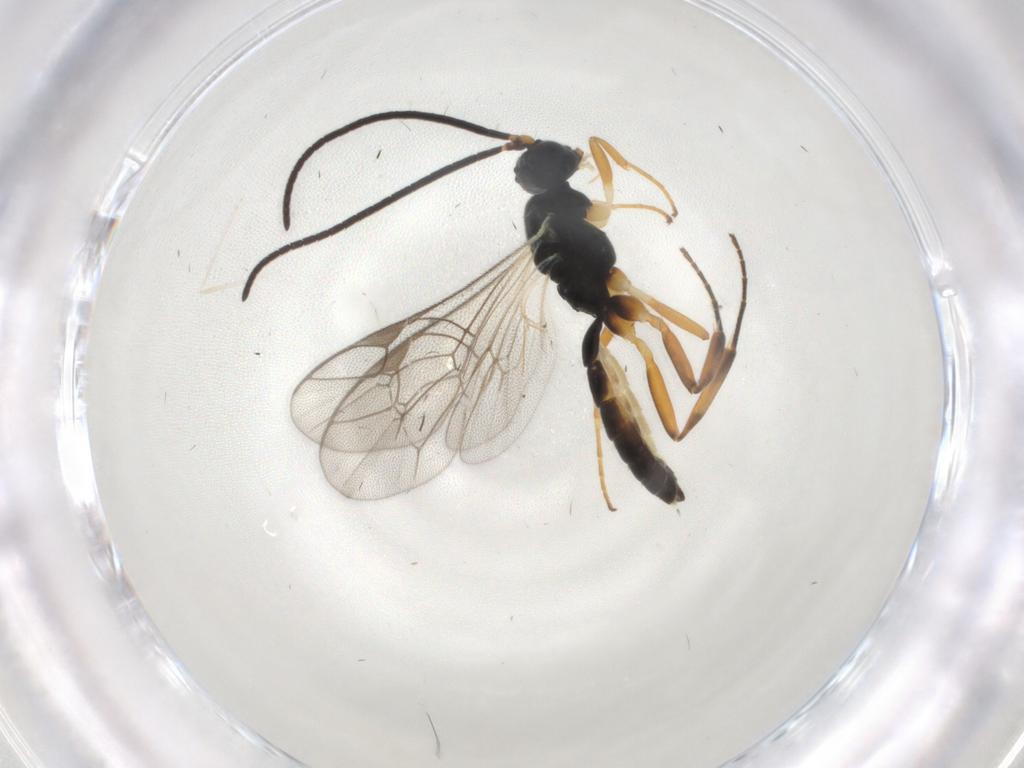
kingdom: Animalia
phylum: Arthropoda
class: Insecta
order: Hymenoptera
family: Ichneumonidae
